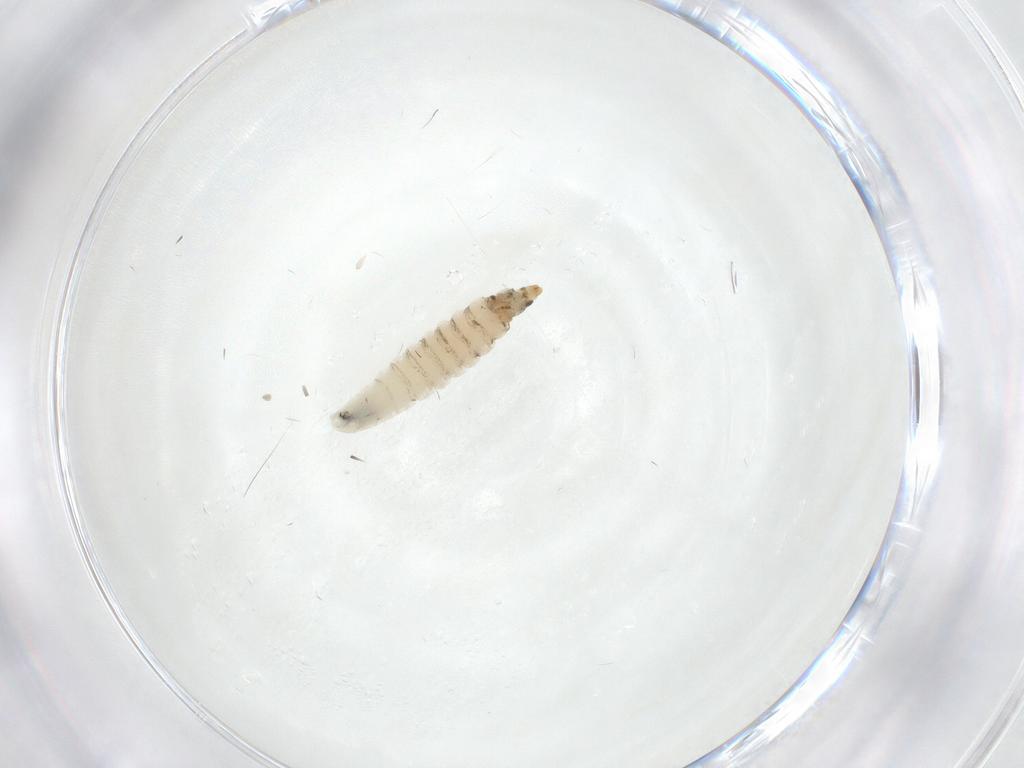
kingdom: Animalia
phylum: Arthropoda
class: Insecta
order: Diptera
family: Drosophilidae
